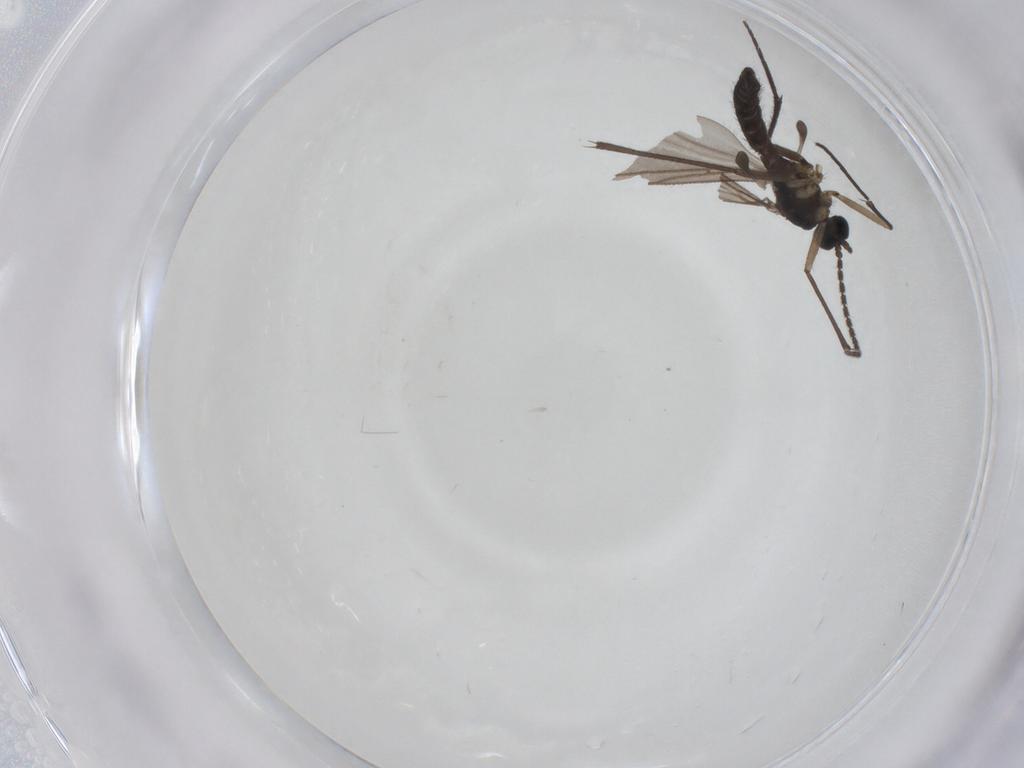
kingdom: Animalia
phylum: Arthropoda
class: Insecta
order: Diptera
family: Sciaridae
